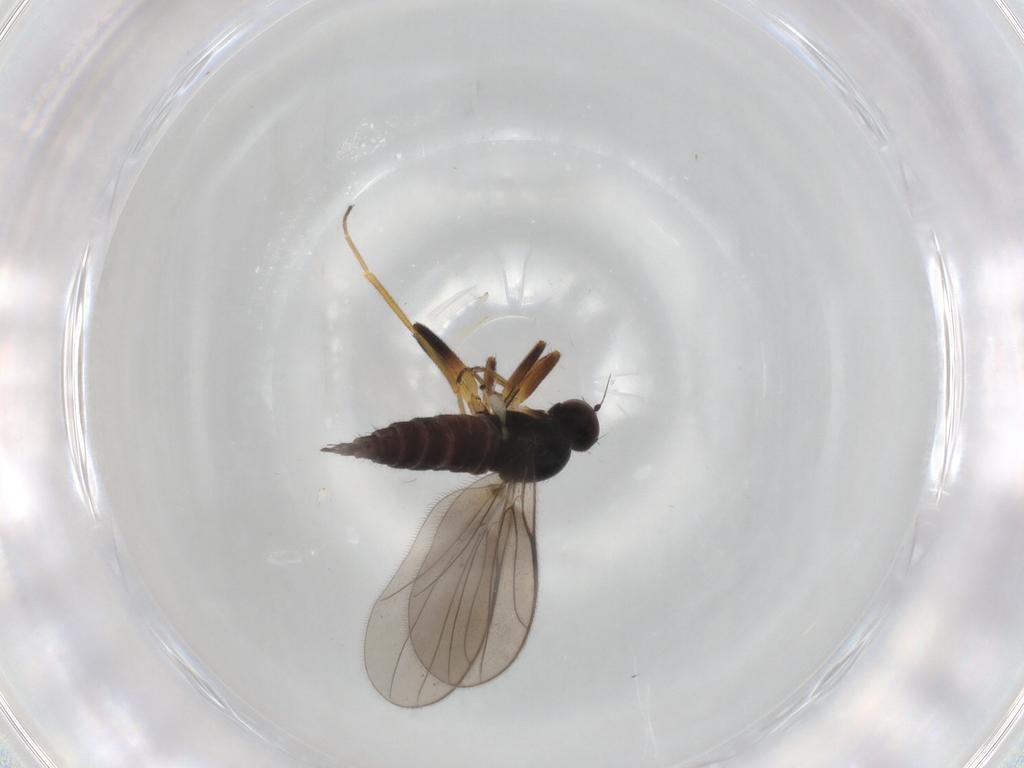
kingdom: Animalia
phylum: Arthropoda
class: Insecta
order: Diptera
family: Hybotidae
